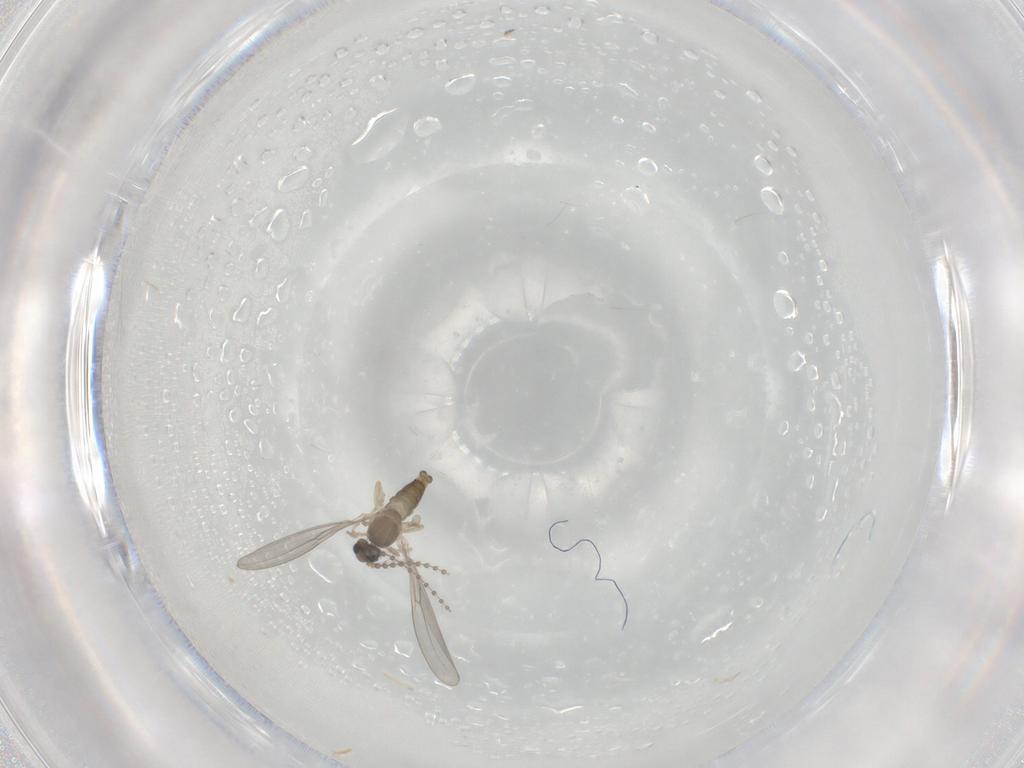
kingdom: Animalia
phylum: Arthropoda
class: Insecta
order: Diptera
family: Cecidomyiidae
